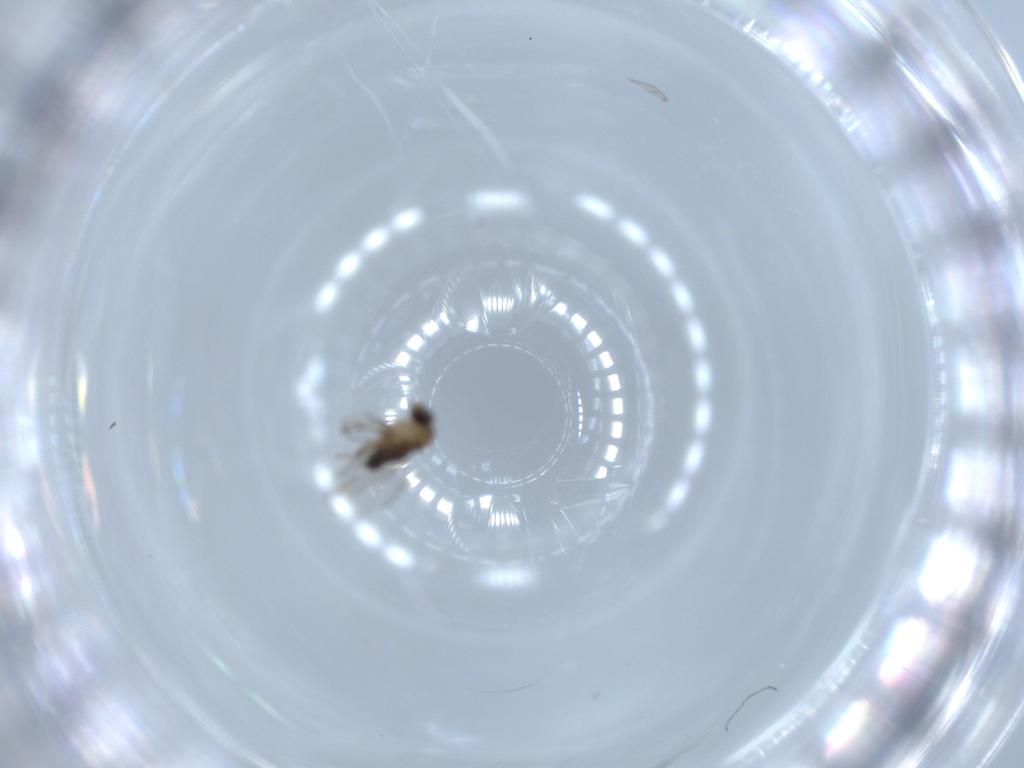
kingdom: Animalia
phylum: Arthropoda
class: Insecta
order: Diptera
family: Phoridae
